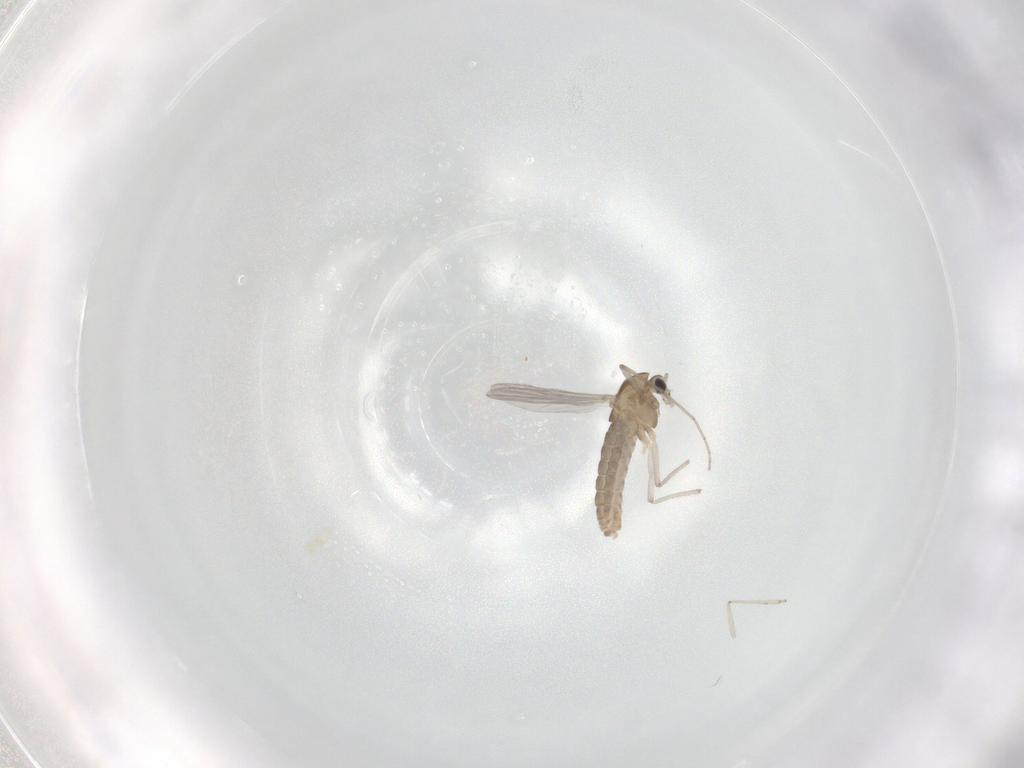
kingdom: Animalia
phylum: Arthropoda
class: Insecta
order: Diptera
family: Chironomidae
